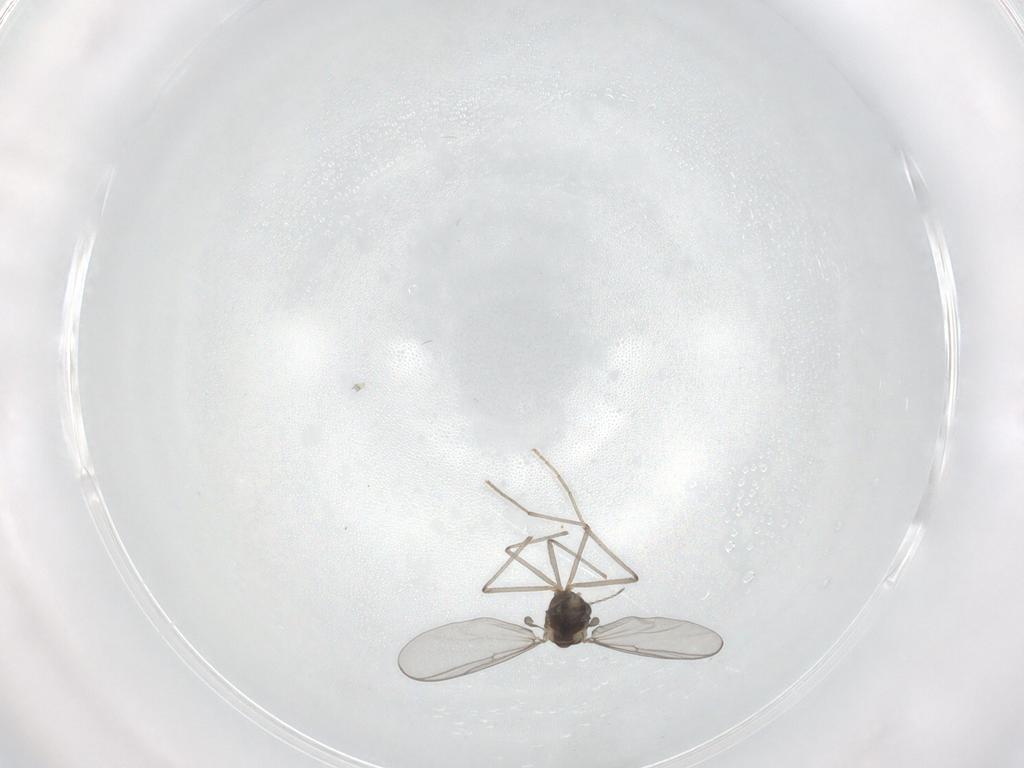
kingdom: Animalia
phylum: Arthropoda
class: Insecta
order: Diptera
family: Chironomidae
